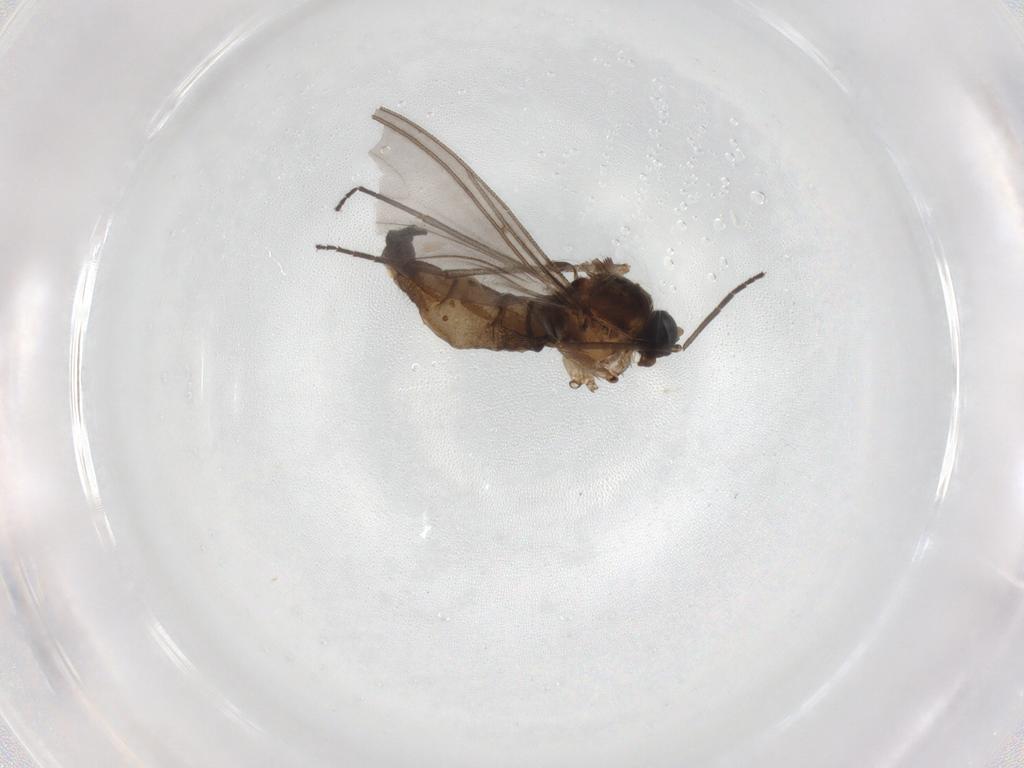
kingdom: Animalia
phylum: Arthropoda
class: Insecta
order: Diptera
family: Sciaridae
